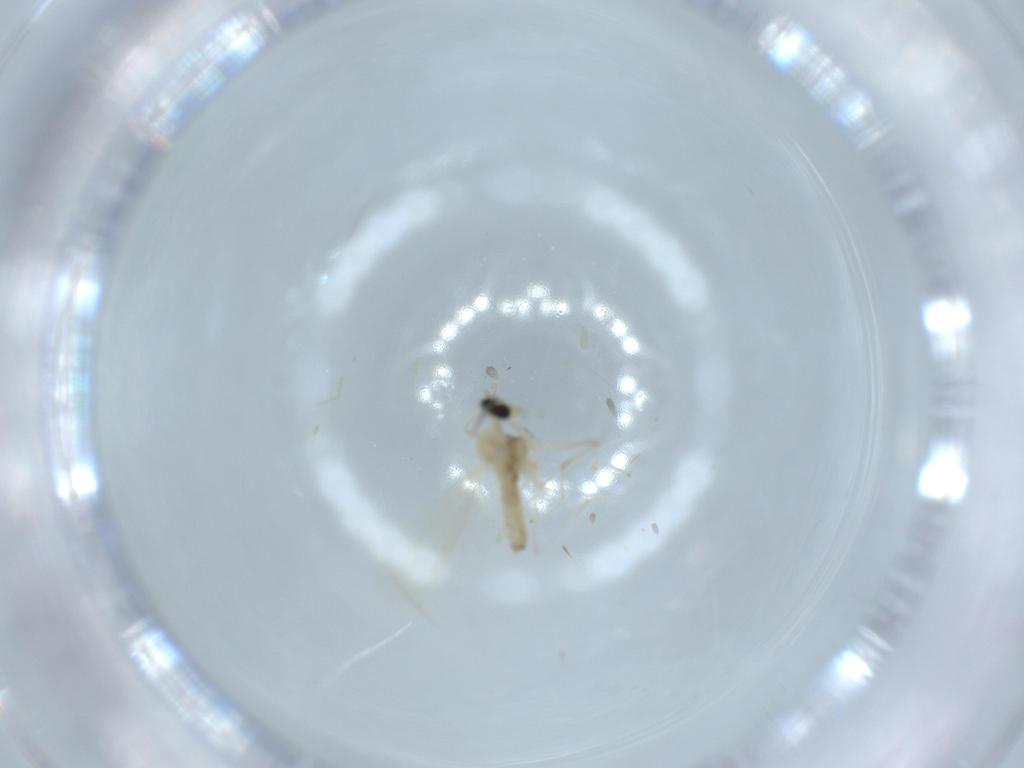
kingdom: Animalia
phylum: Arthropoda
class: Insecta
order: Diptera
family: Cecidomyiidae
